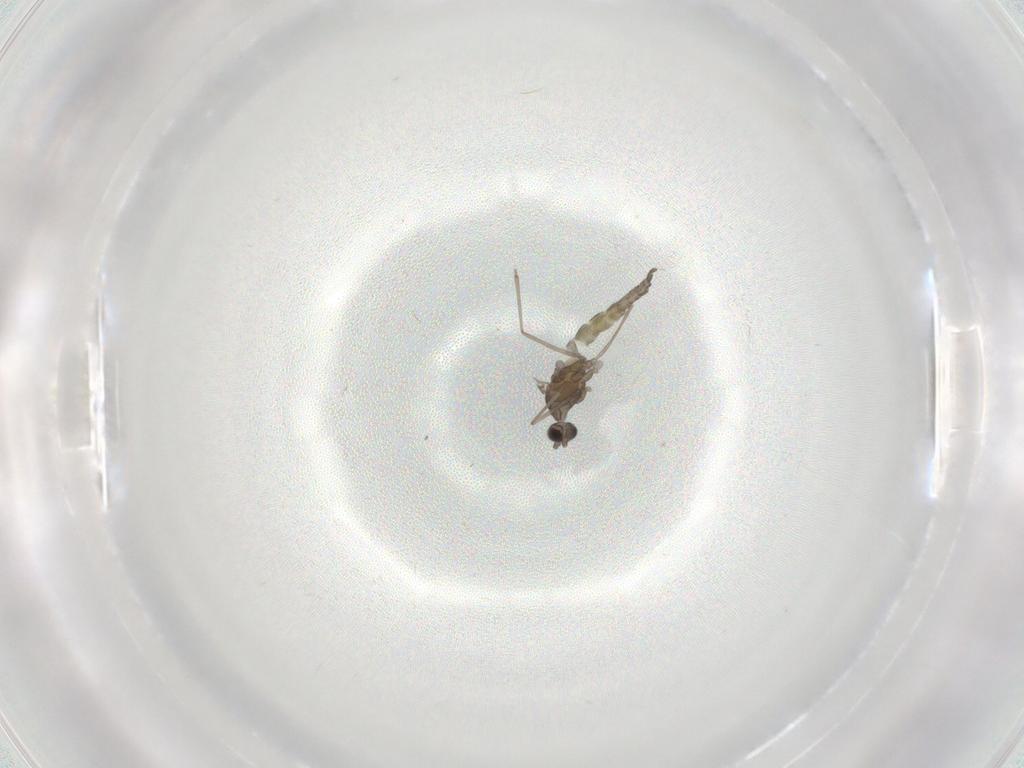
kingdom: Animalia
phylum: Arthropoda
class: Insecta
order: Diptera
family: Cecidomyiidae
